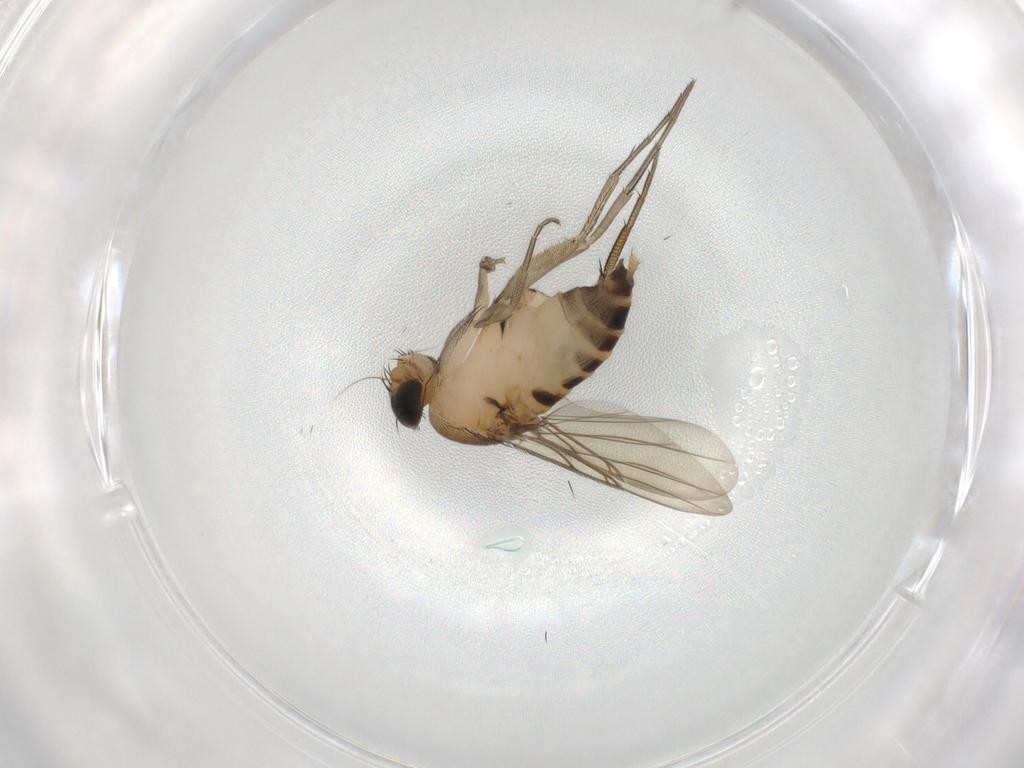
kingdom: Animalia
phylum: Arthropoda
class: Insecta
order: Diptera
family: Phoridae
